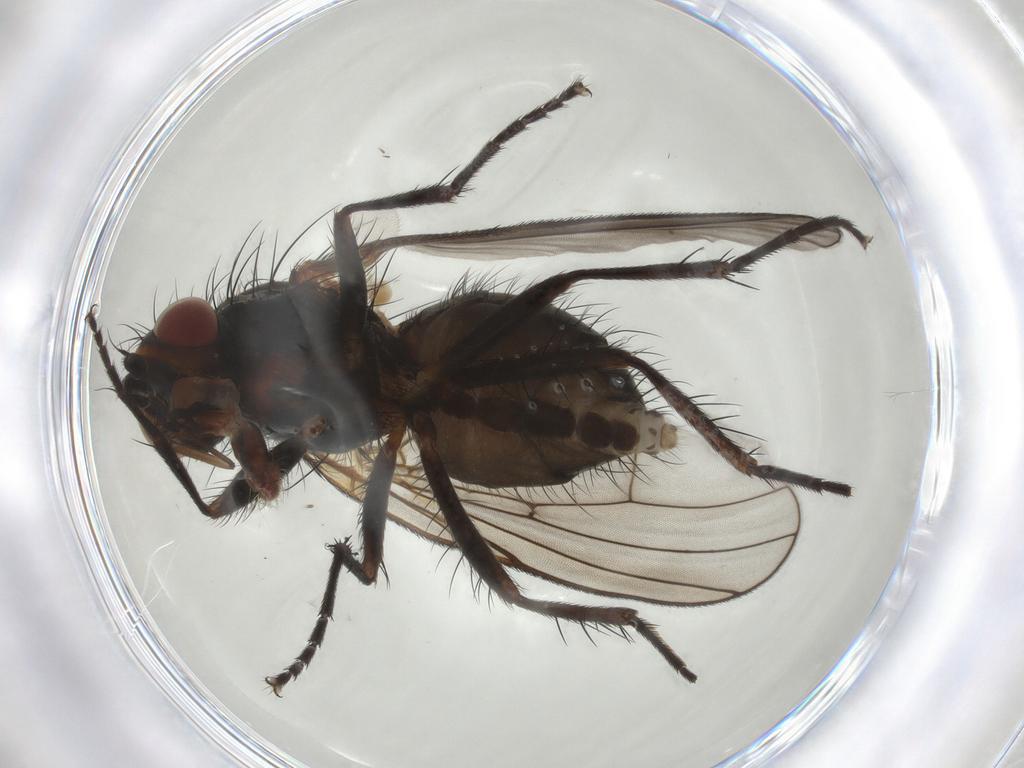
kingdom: Animalia
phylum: Arthropoda
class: Insecta
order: Diptera
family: Anthomyiidae
